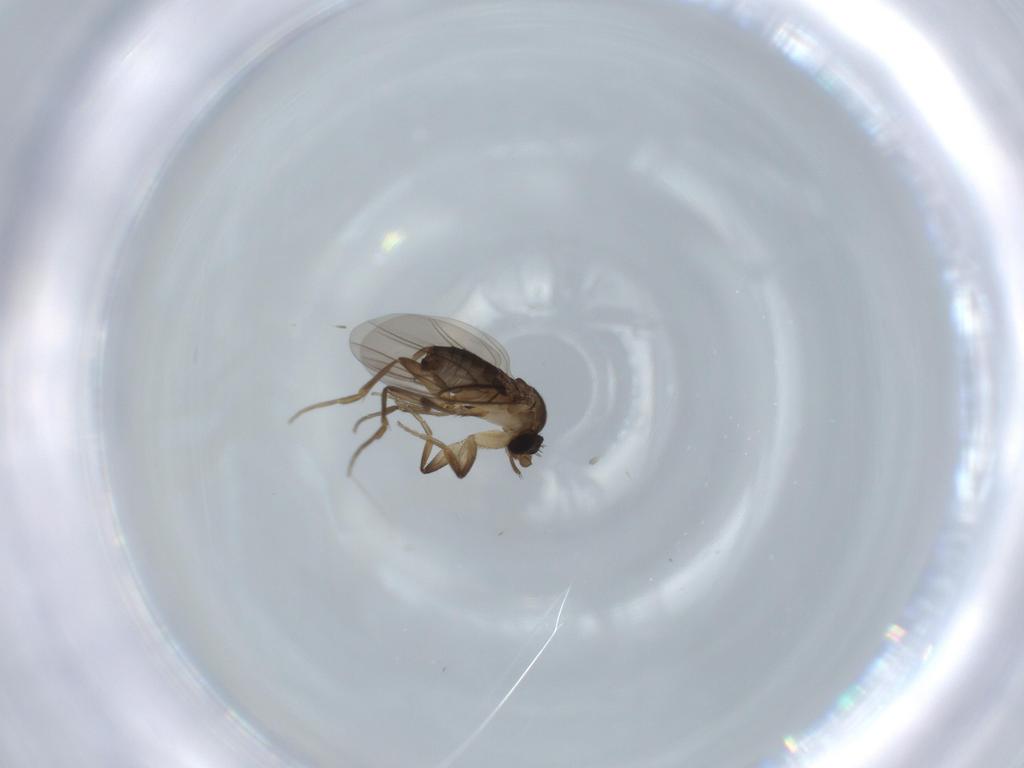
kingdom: Animalia
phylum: Arthropoda
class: Insecta
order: Diptera
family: Phoridae
